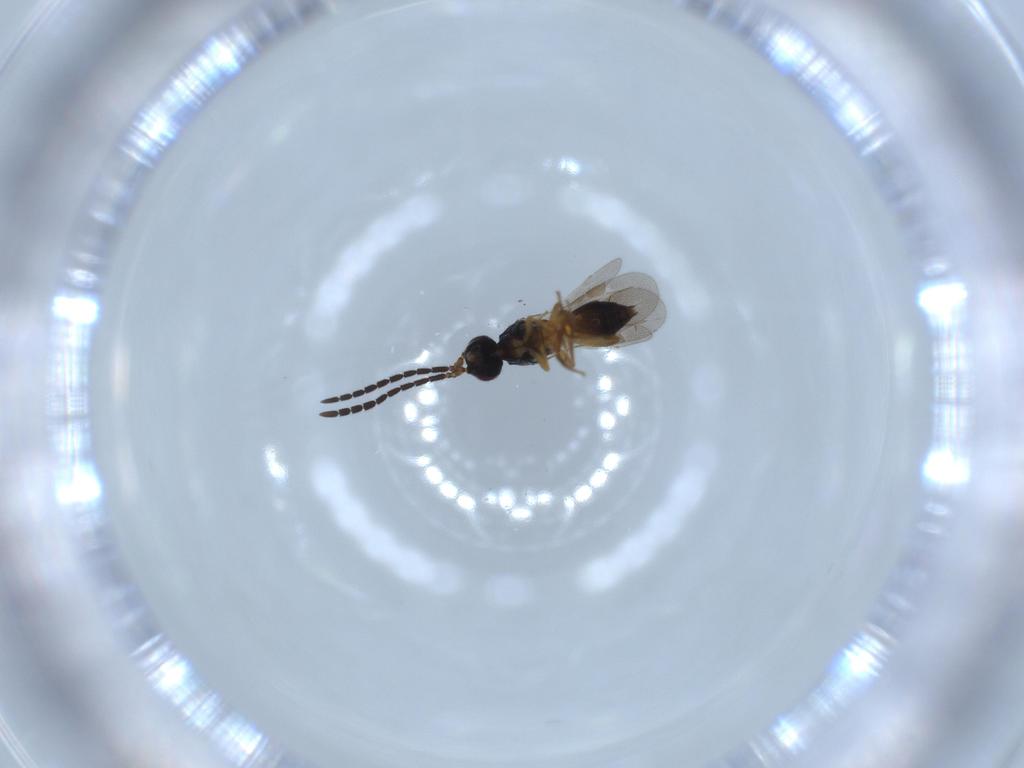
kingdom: Animalia
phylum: Arthropoda
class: Insecta
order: Hymenoptera
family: Megaspilidae
